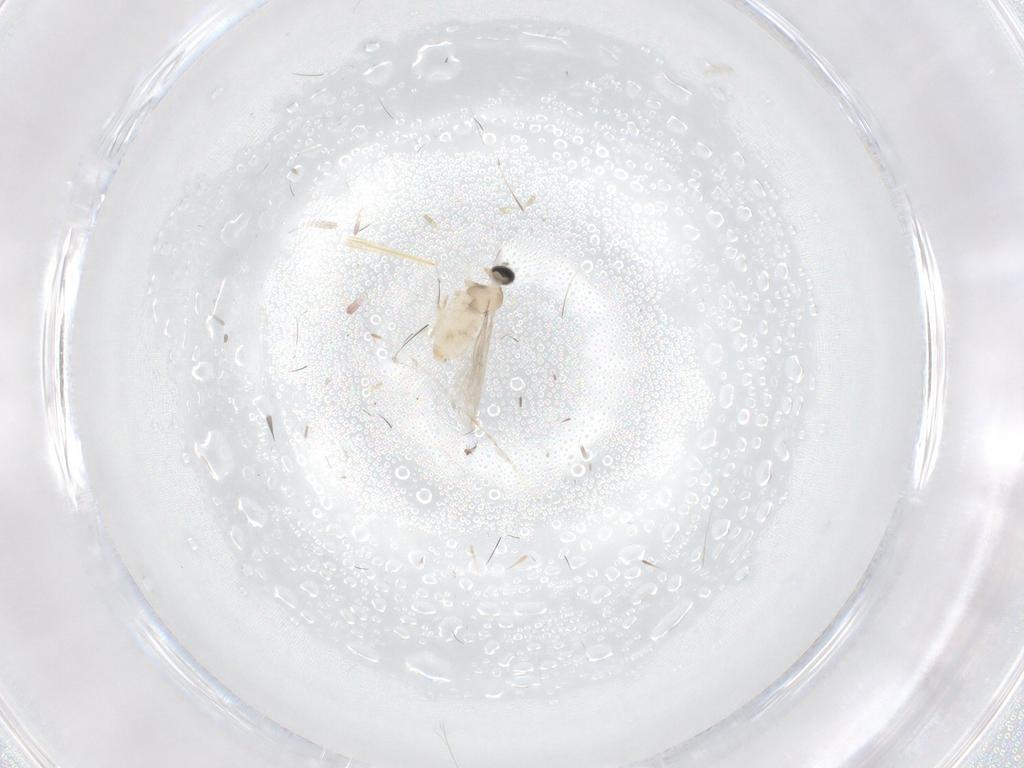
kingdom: Animalia
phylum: Arthropoda
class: Insecta
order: Diptera
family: Cecidomyiidae
